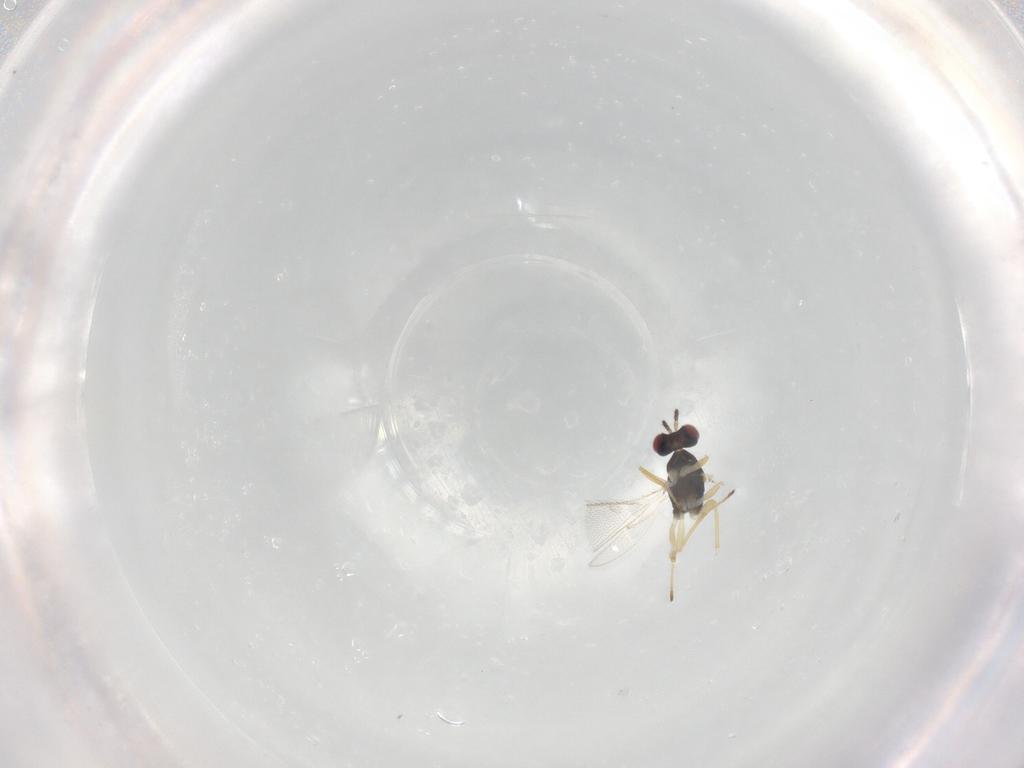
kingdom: Animalia
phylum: Arthropoda
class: Insecta
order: Hymenoptera
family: Eulophidae
